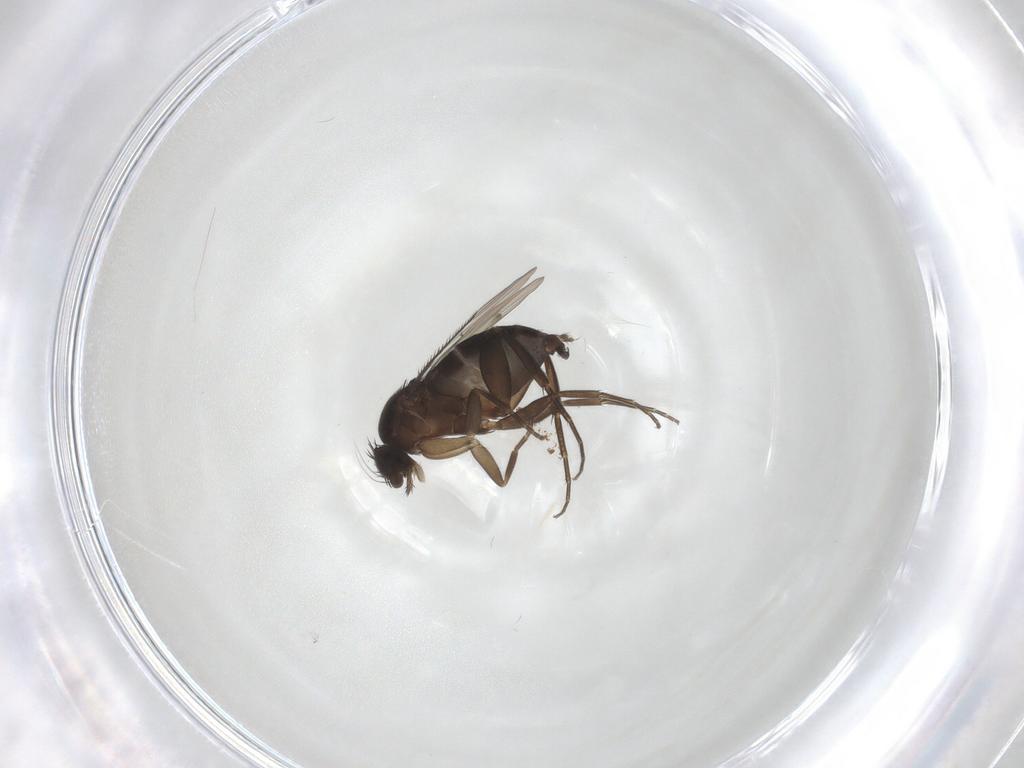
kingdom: Animalia
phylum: Arthropoda
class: Insecta
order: Diptera
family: Phoridae
